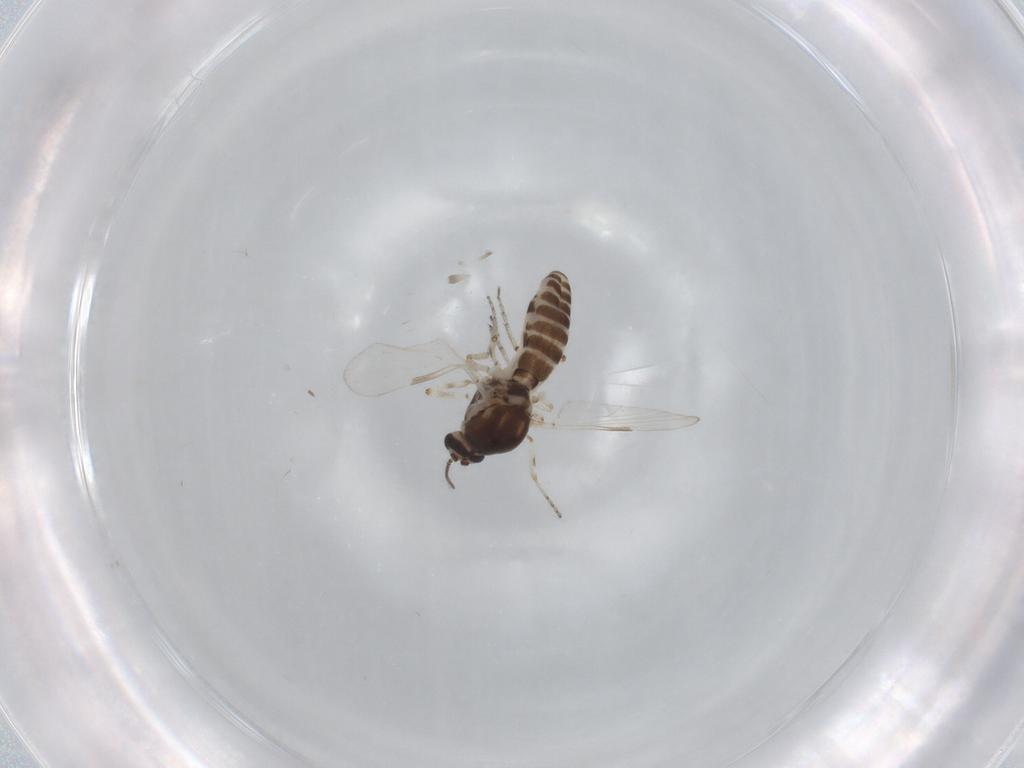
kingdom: Animalia
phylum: Arthropoda
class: Insecta
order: Diptera
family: Ceratopogonidae
